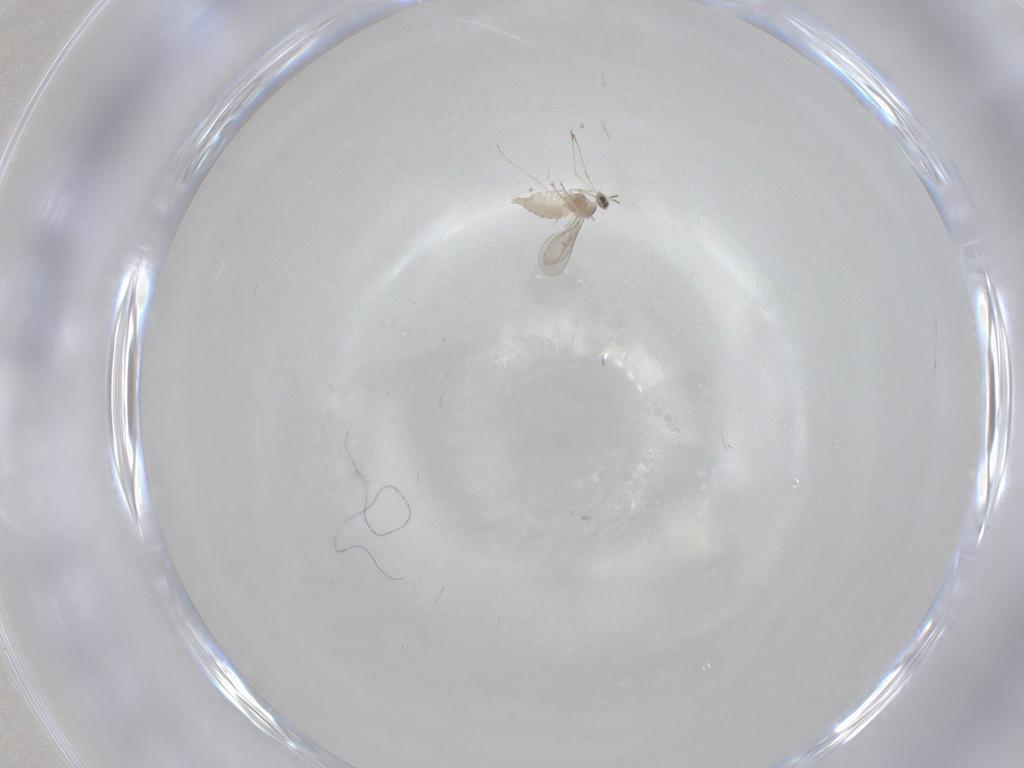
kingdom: Animalia
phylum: Arthropoda
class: Insecta
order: Diptera
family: Cecidomyiidae
